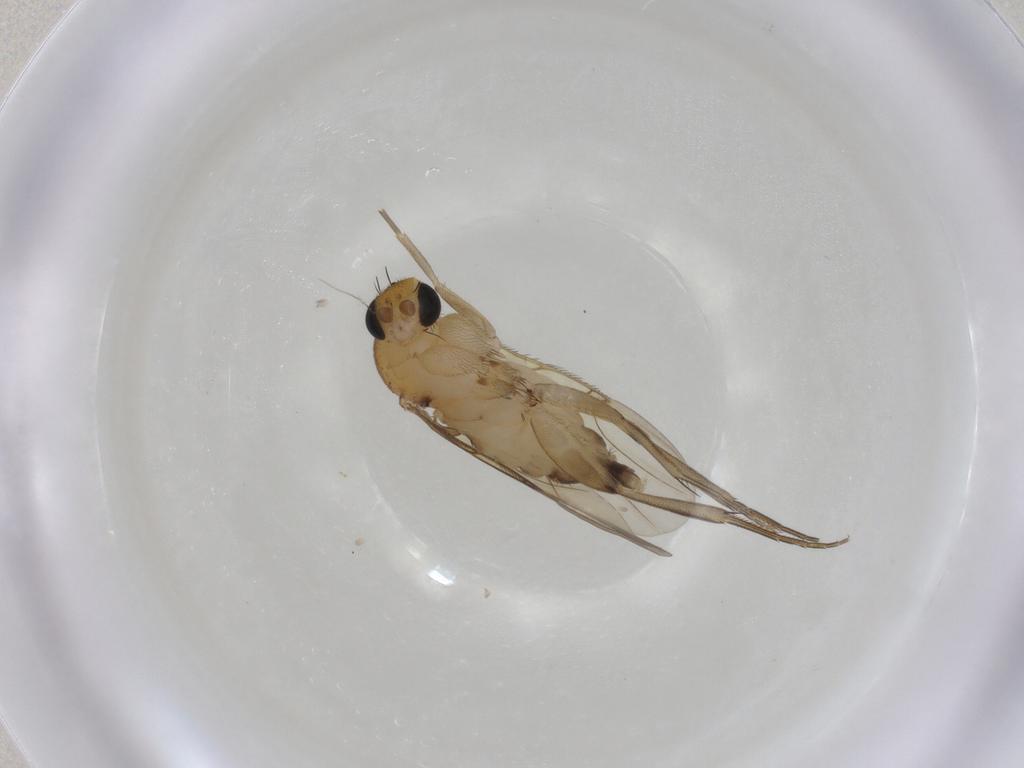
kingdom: Animalia
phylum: Arthropoda
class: Insecta
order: Diptera
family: Phoridae
